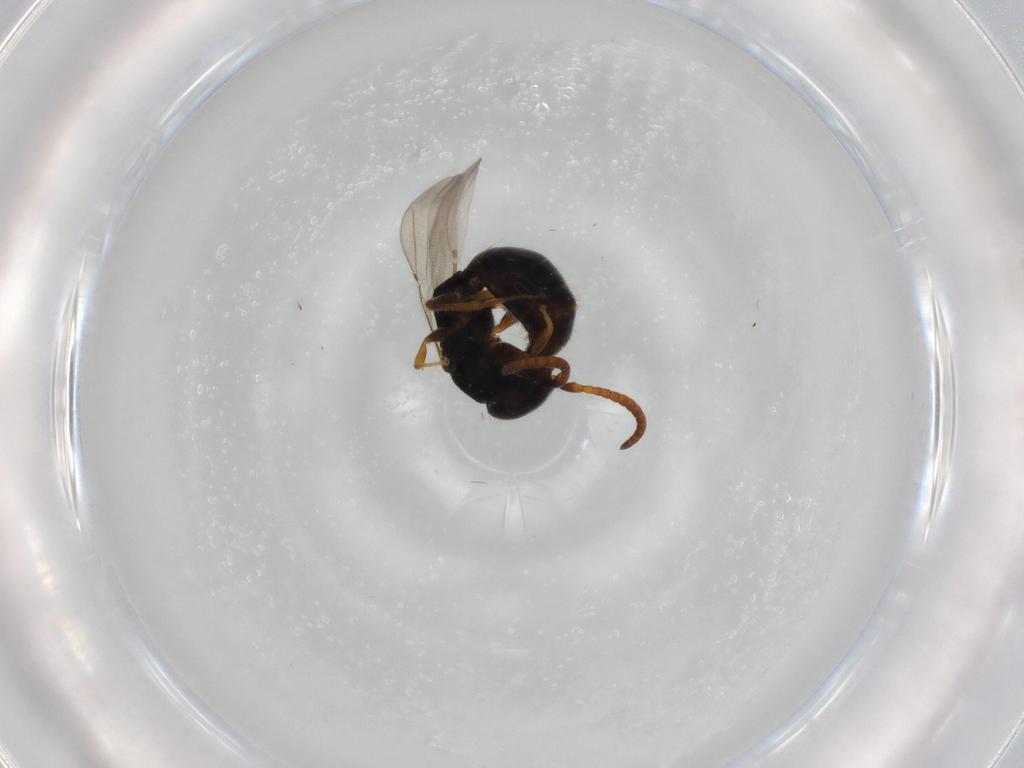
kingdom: Animalia
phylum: Arthropoda
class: Insecta
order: Hymenoptera
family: Bethylidae
